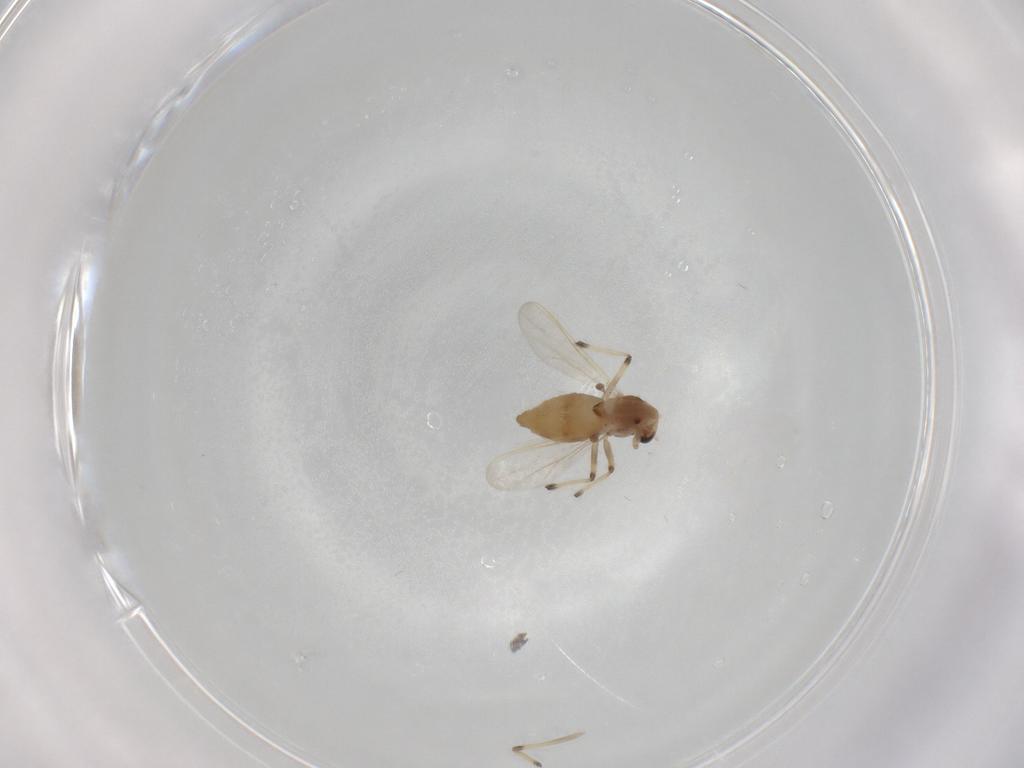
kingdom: Animalia
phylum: Arthropoda
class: Insecta
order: Diptera
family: Chironomidae
